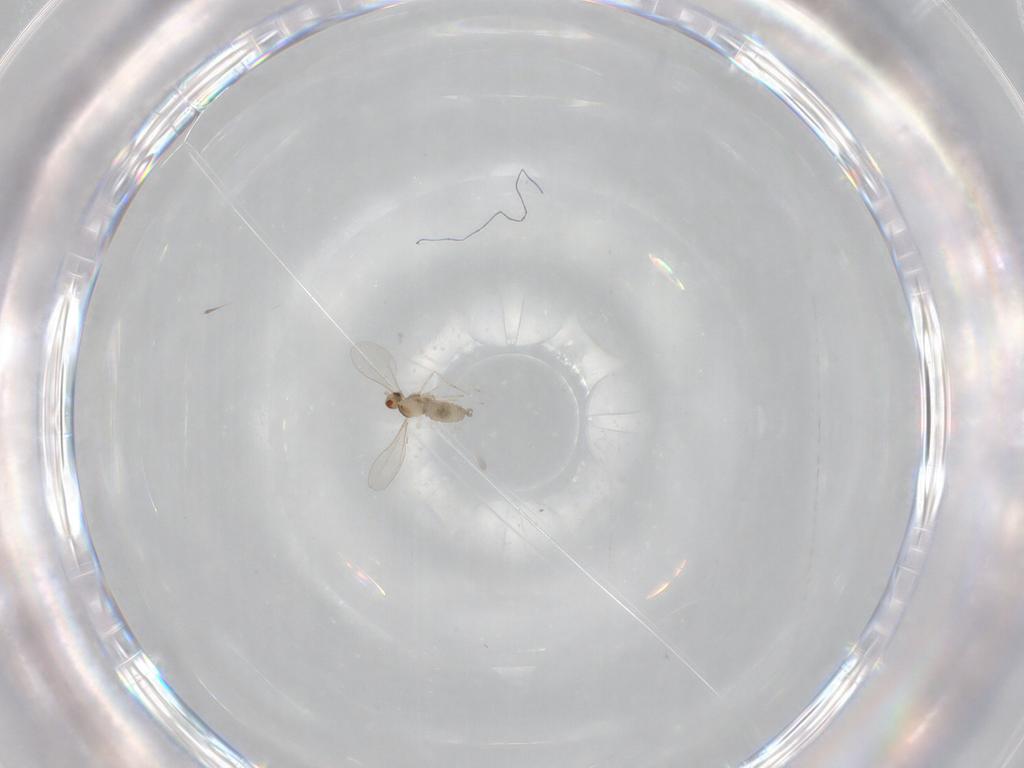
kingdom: Animalia
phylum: Arthropoda
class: Insecta
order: Diptera
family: Cecidomyiidae
